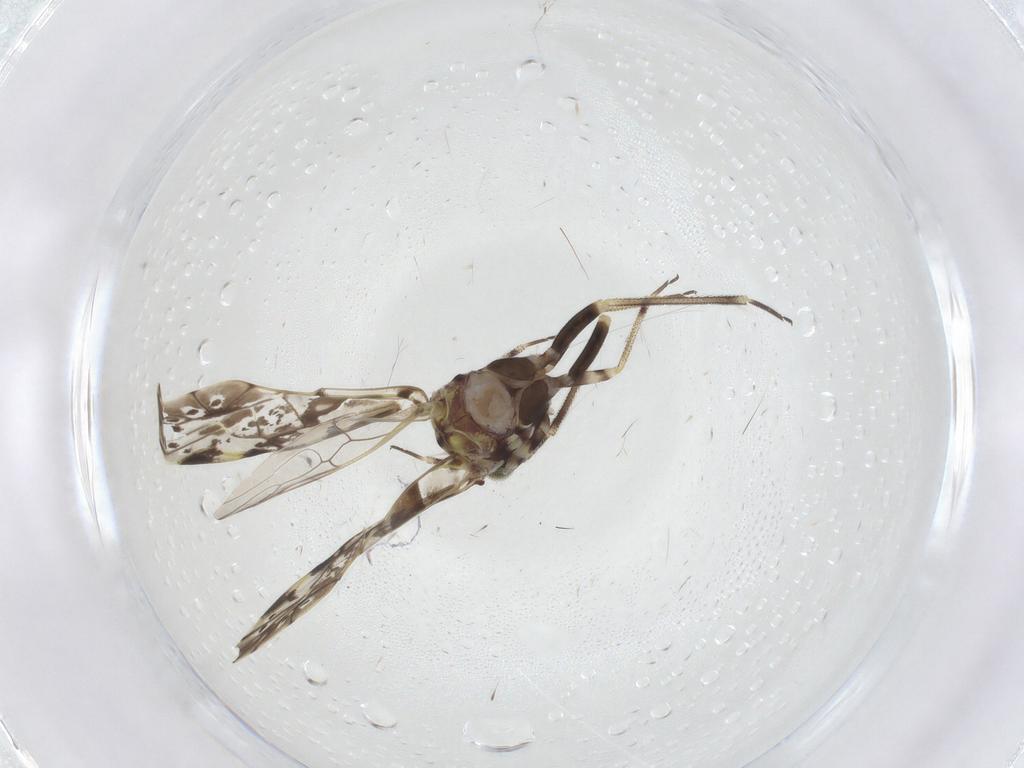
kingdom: Animalia
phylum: Arthropoda
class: Insecta
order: Psocodea
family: Psocidae
